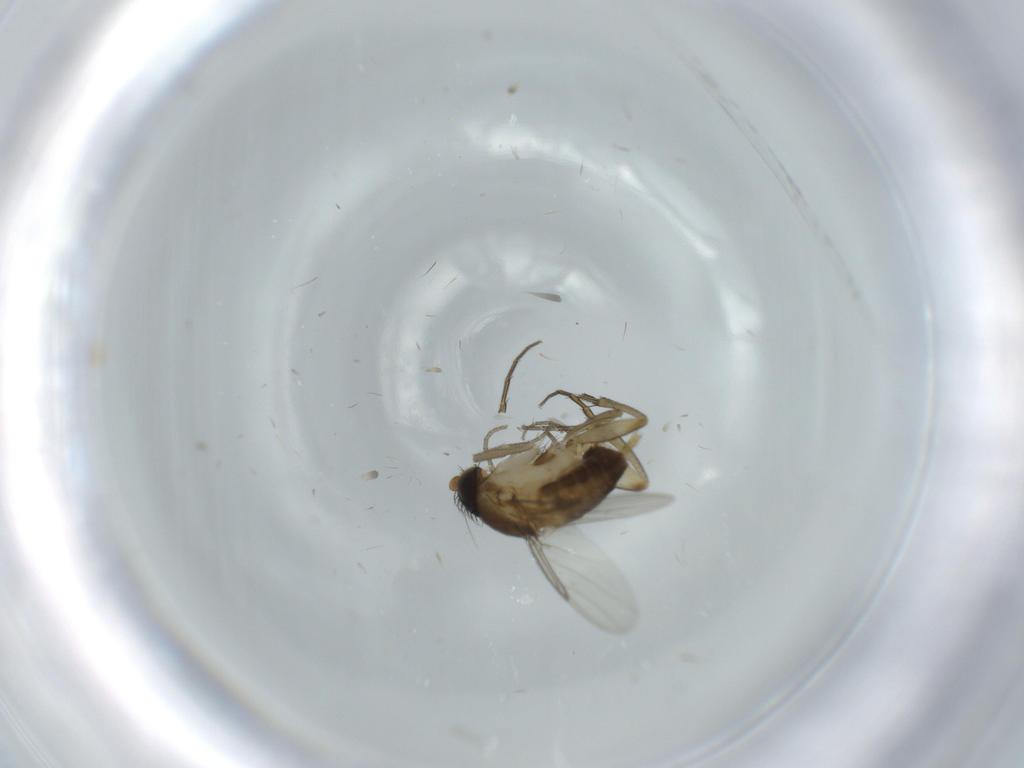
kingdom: Animalia
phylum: Arthropoda
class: Insecta
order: Diptera
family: Phoridae
